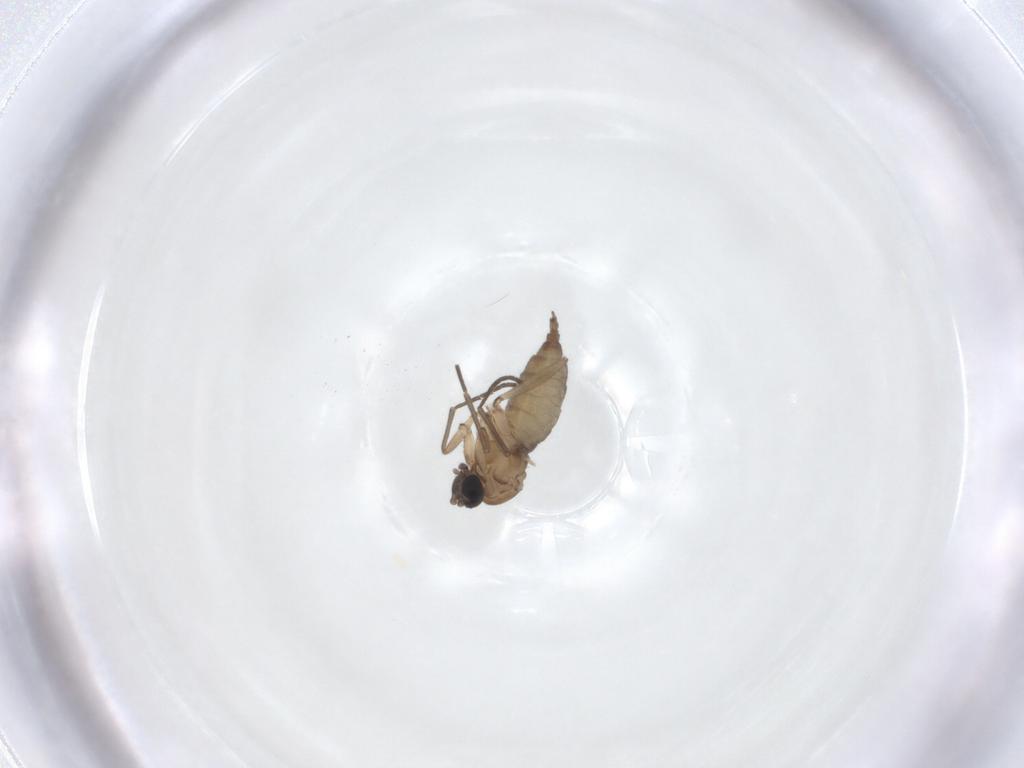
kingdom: Animalia
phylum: Arthropoda
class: Insecta
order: Diptera
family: Sciaridae
